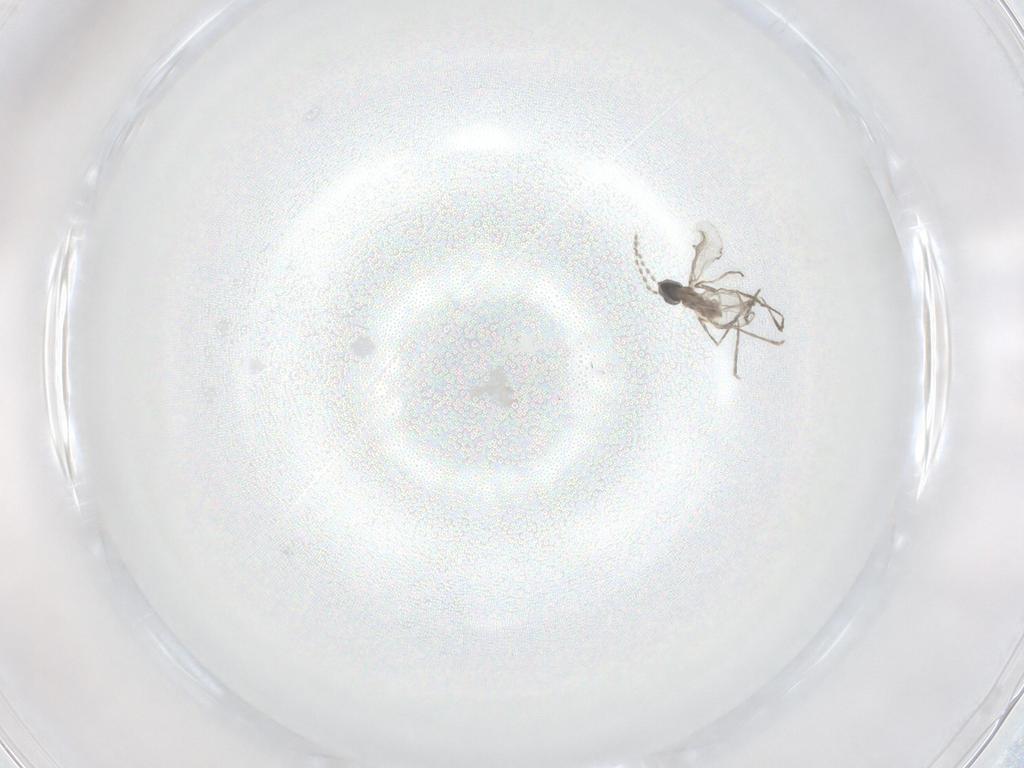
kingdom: Animalia
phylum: Arthropoda
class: Insecta
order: Diptera
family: Cecidomyiidae
